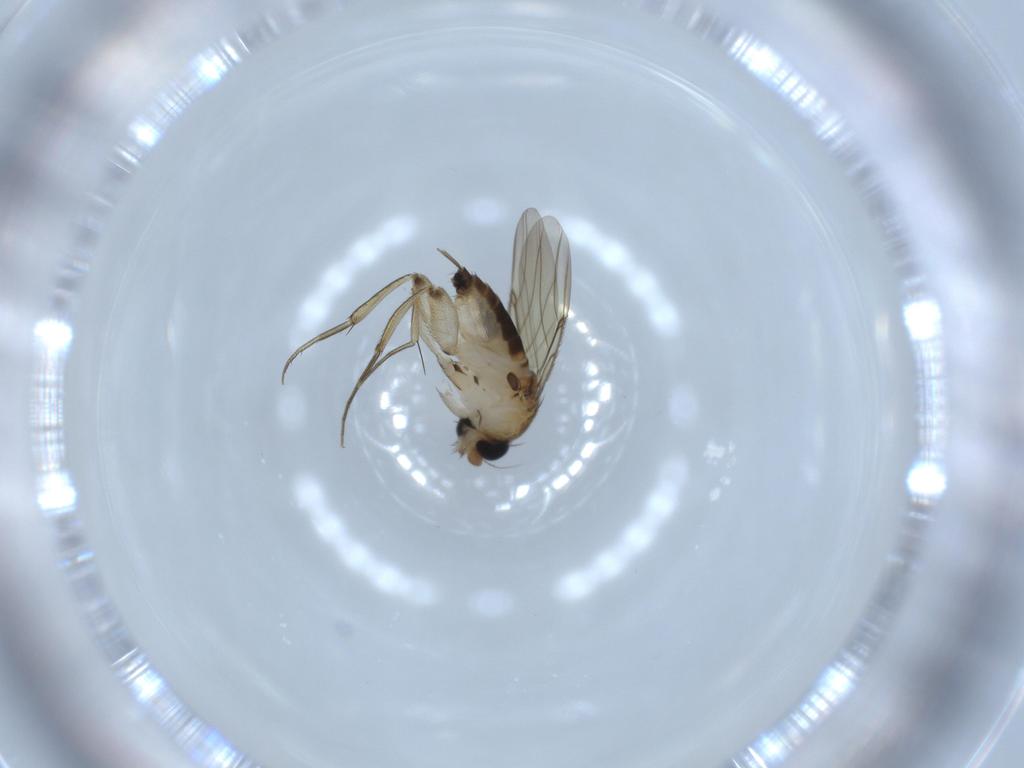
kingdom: Animalia
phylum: Arthropoda
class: Insecta
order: Diptera
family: Phoridae
